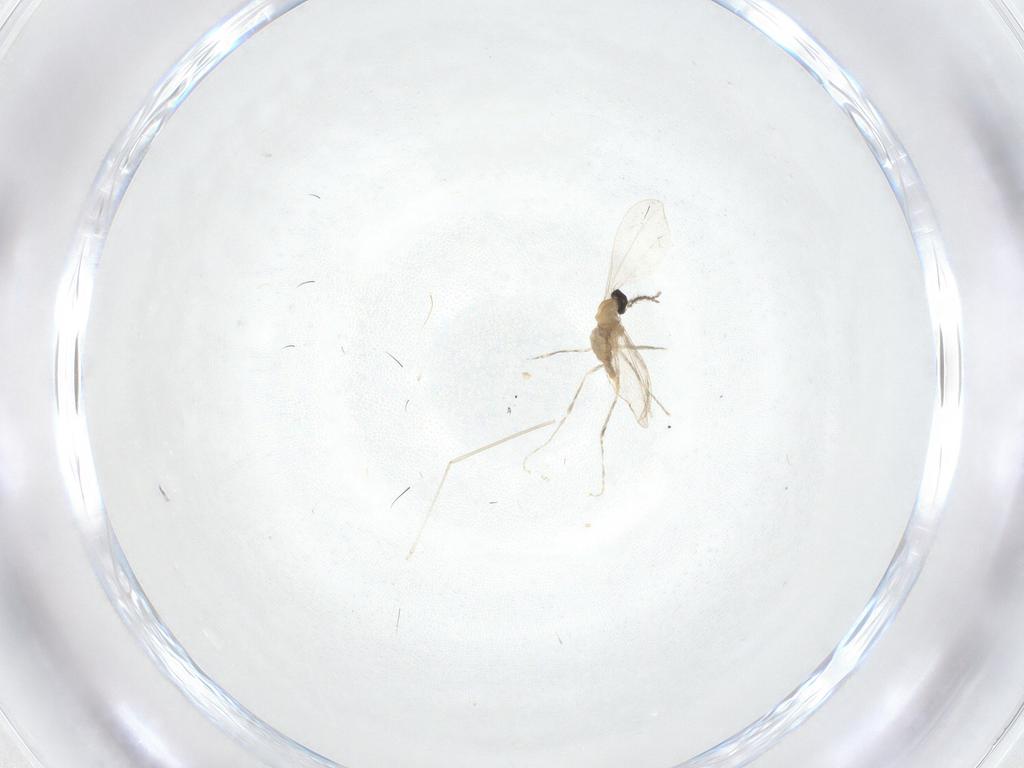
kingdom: Animalia
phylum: Arthropoda
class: Insecta
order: Diptera
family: Cecidomyiidae
